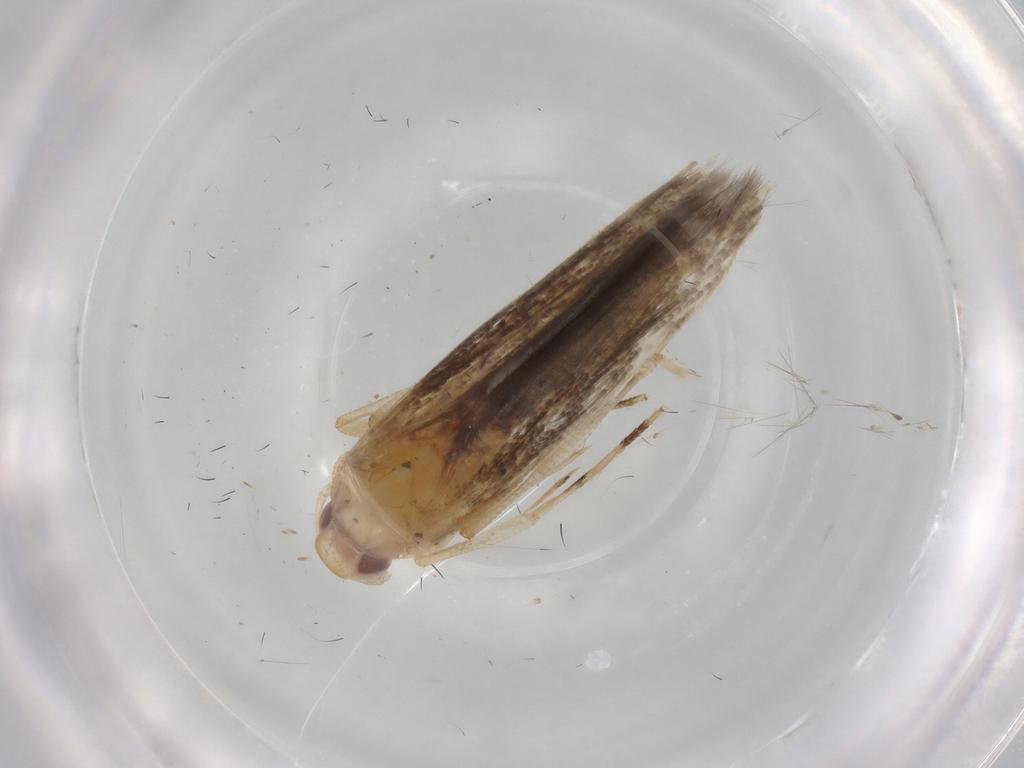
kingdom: Animalia
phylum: Arthropoda
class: Insecta
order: Lepidoptera
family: Cosmopterigidae
